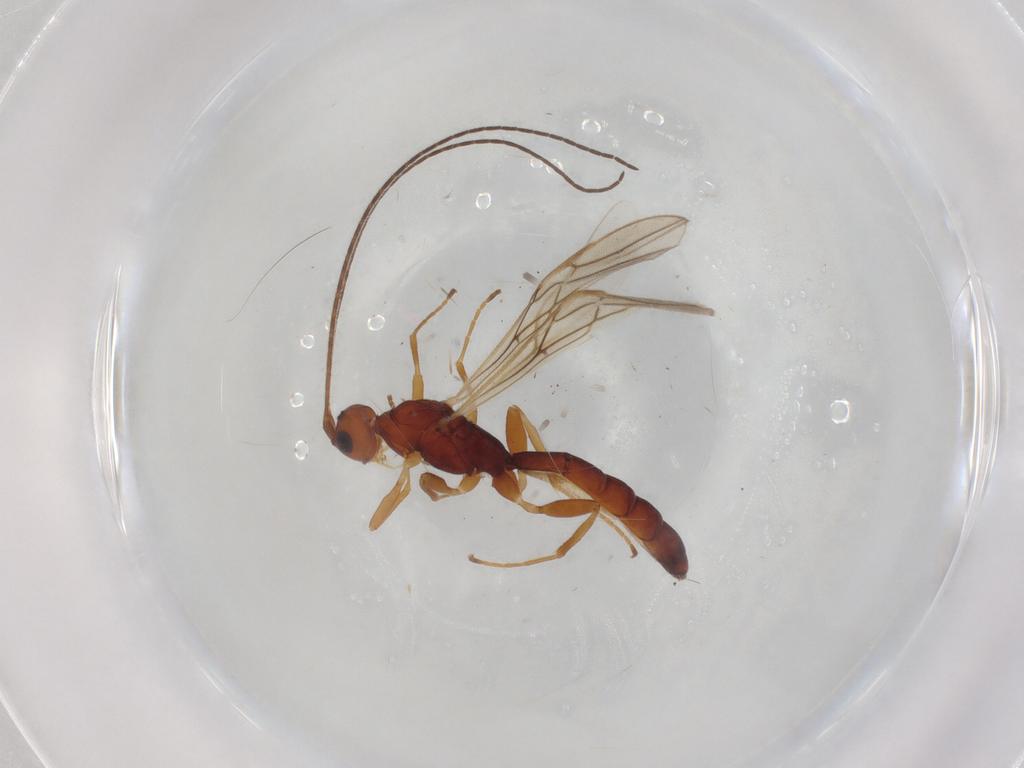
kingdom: Animalia
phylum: Arthropoda
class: Insecta
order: Hymenoptera
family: Braconidae
